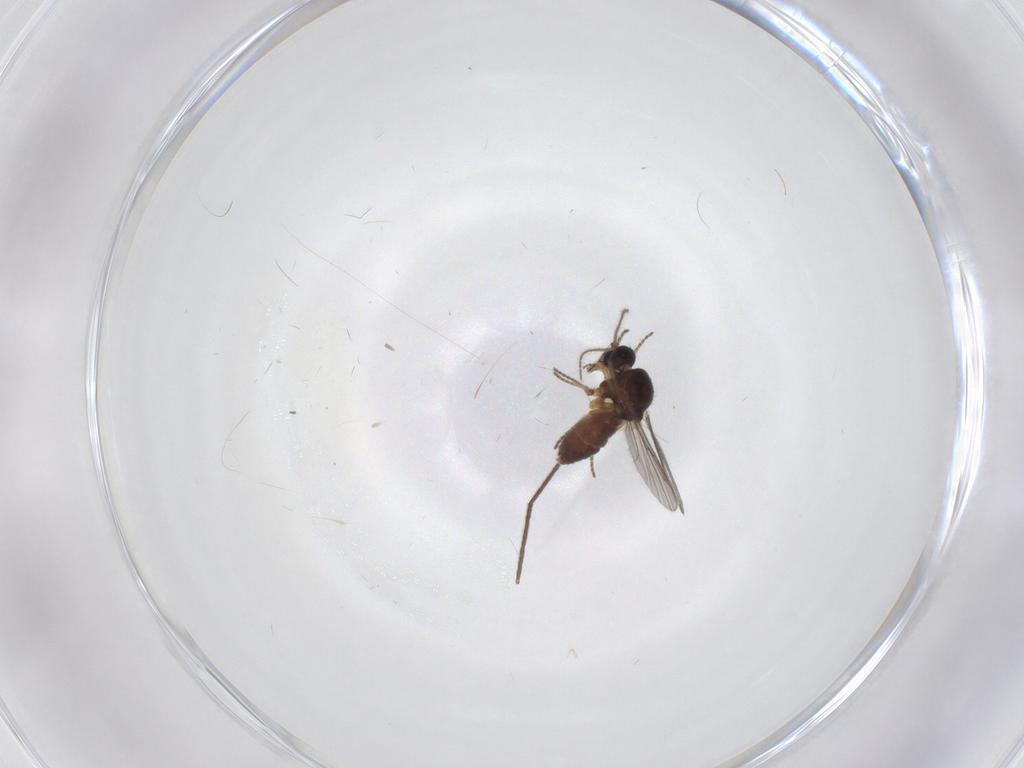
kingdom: Animalia
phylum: Arthropoda
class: Insecta
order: Diptera
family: Ceratopogonidae
